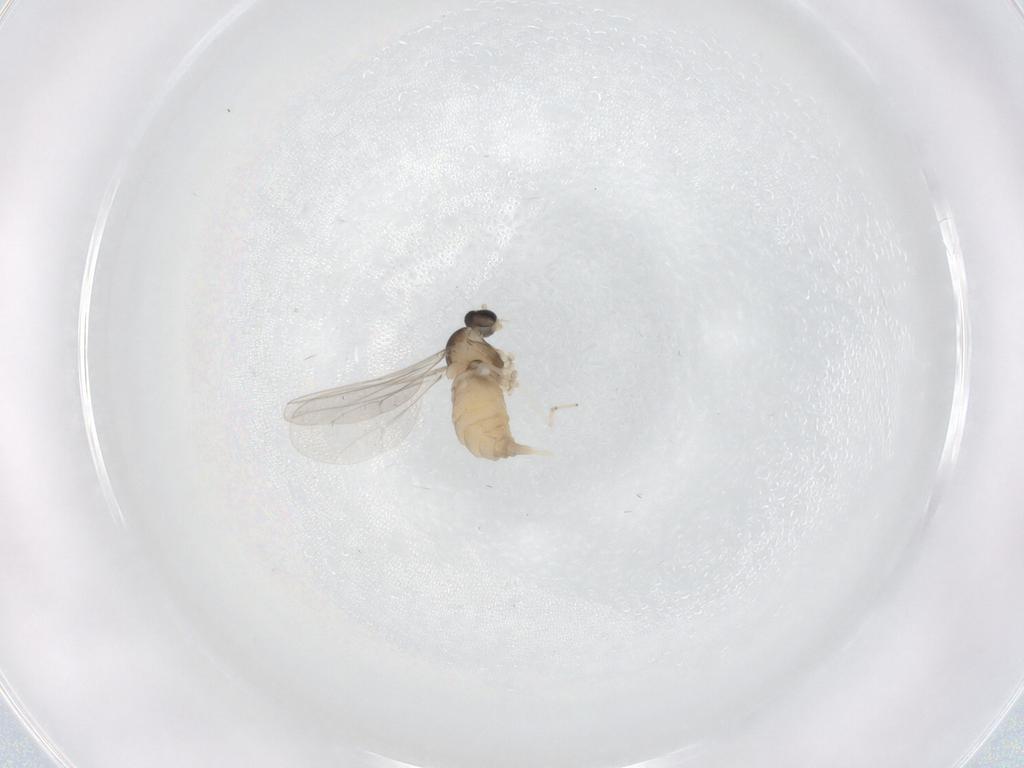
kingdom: Animalia
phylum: Arthropoda
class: Insecta
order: Diptera
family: Cecidomyiidae
